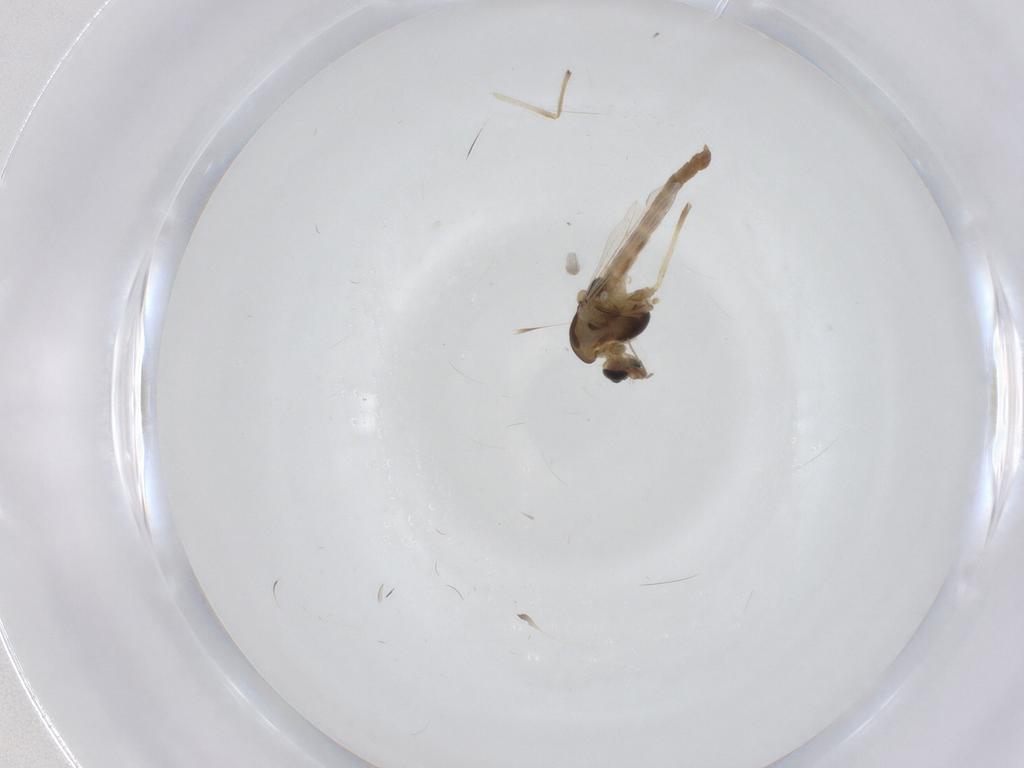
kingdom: Animalia
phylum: Arthropoda
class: Insecta
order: Diptera
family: Chironomidae
